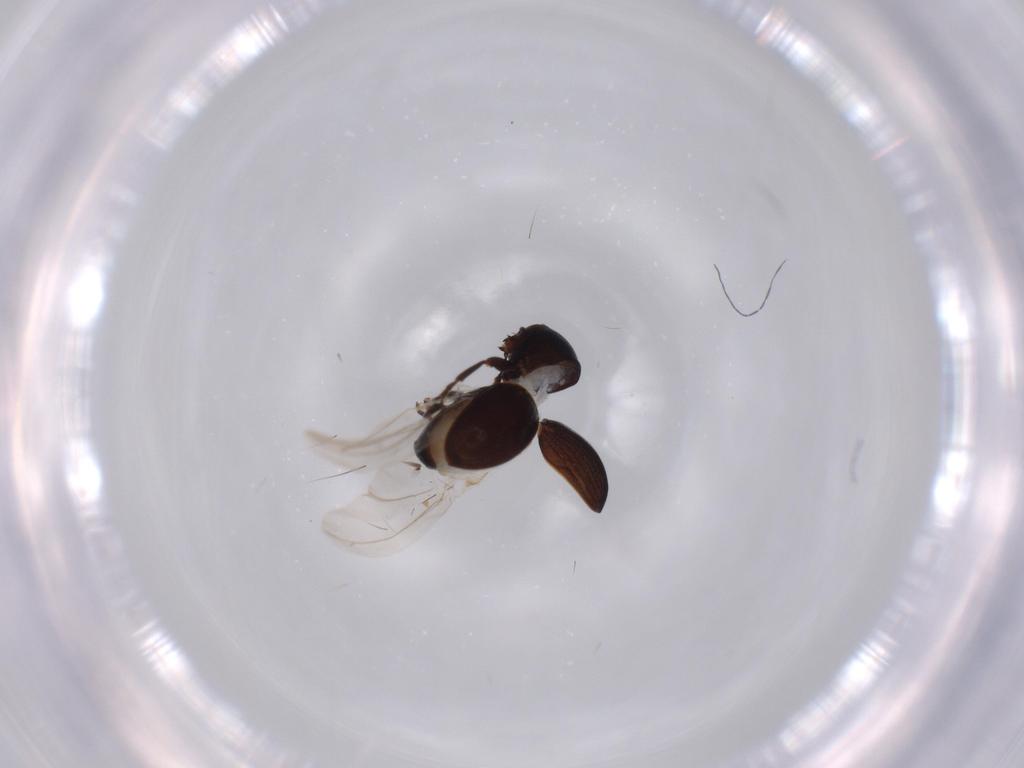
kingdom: Animalia
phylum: Arthropoda
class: Insecta
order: Coleoptera
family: Anthribidae
